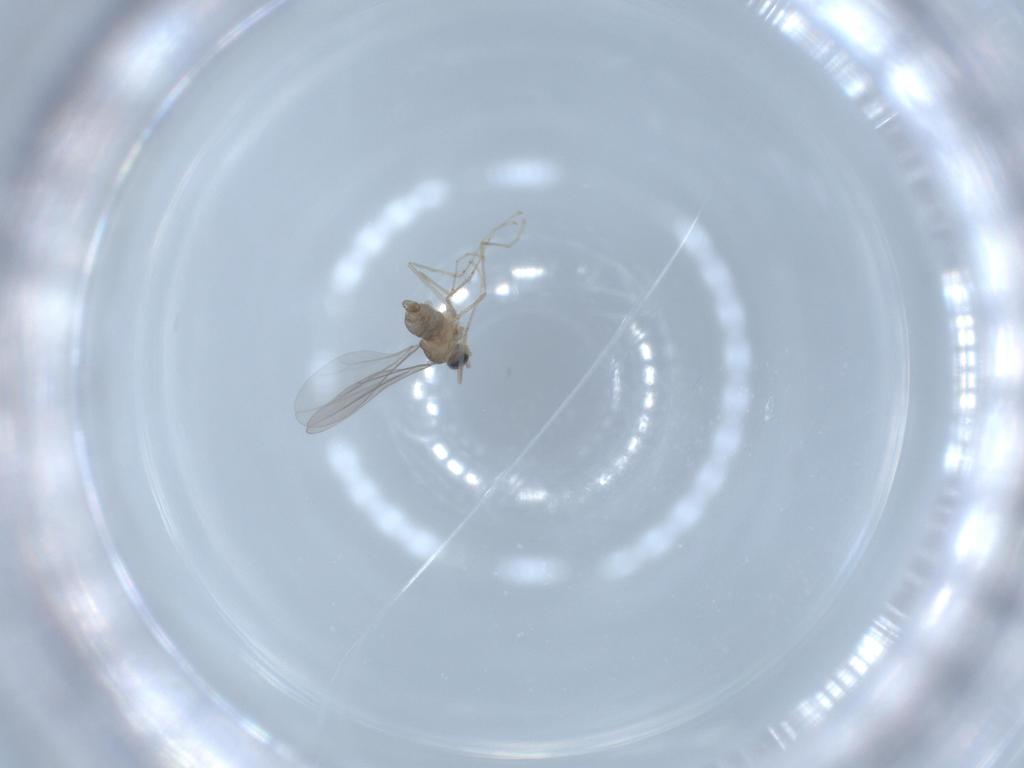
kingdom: Animalia
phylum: Arthropoda
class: Insecta
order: Diptera
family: Cecidomyiidae
